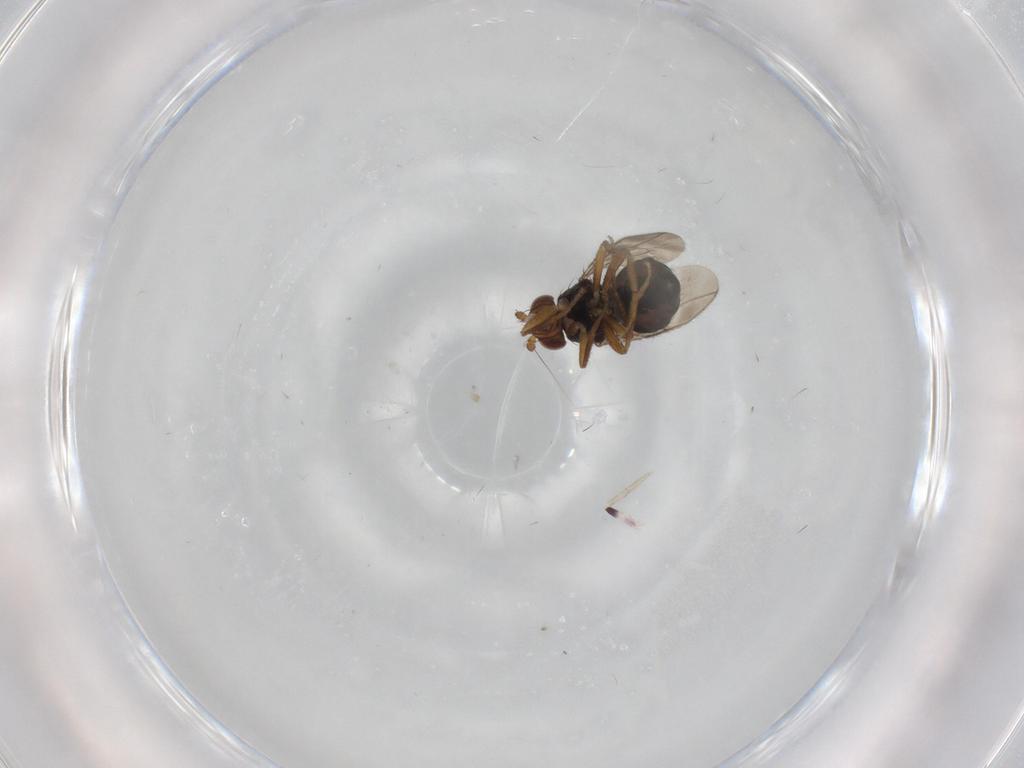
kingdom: Animalia
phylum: Arthropoda
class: Insecta
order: Diptera
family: Sphaeroceridae
